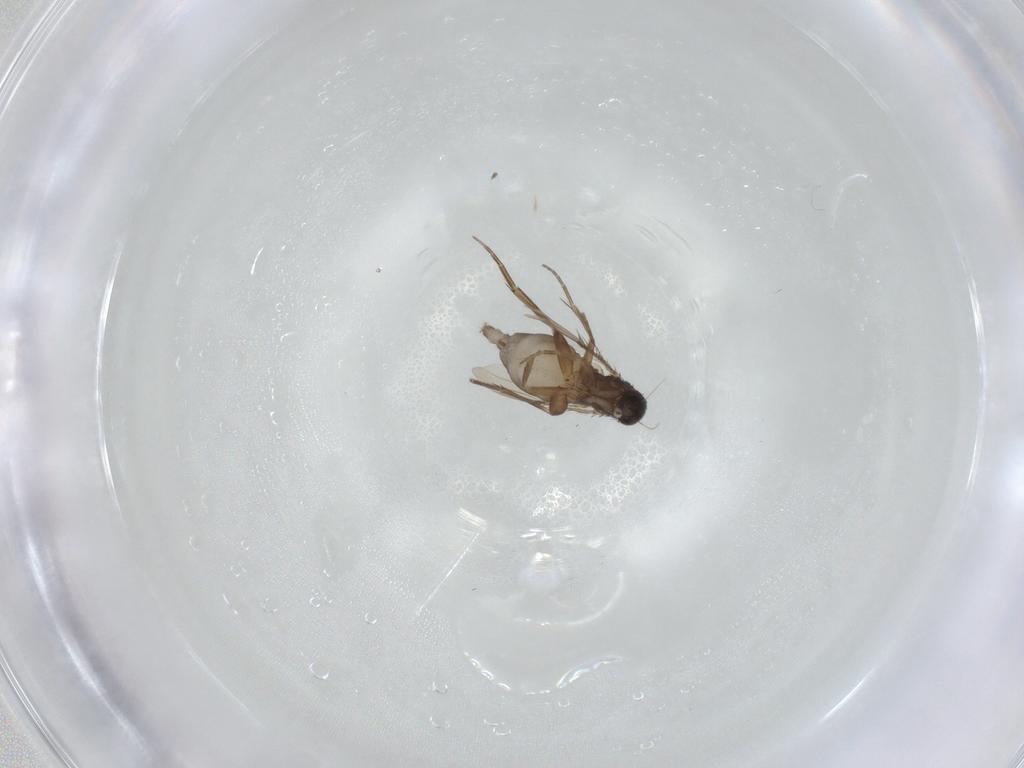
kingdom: Animalia
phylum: Arthropoda
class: Insecta
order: Diptera
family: Phoridae
